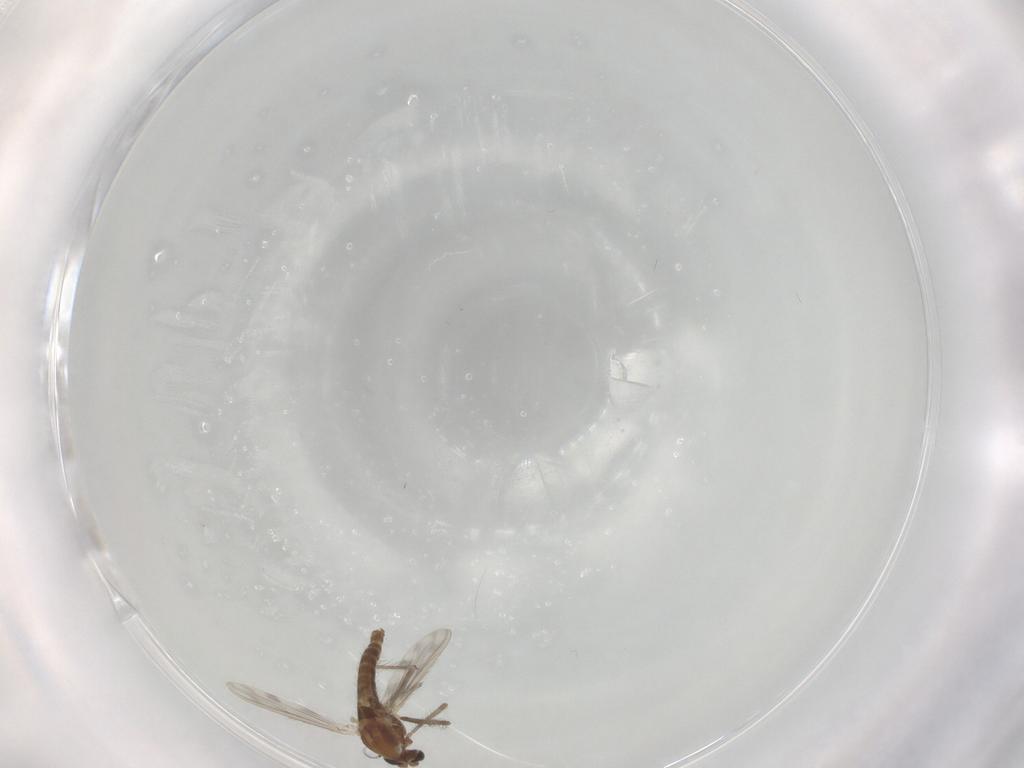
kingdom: Animalia
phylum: Arthropoda
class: Insecta
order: Diptera
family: Chironomidae
